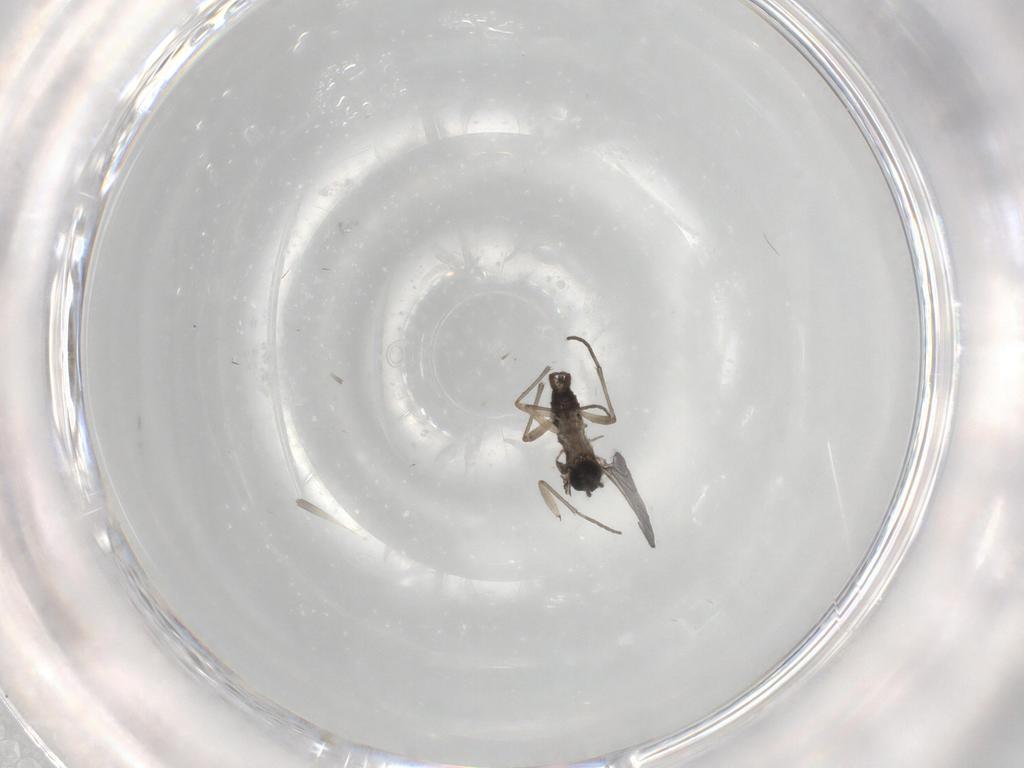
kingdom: Animalia
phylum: Arthropoda
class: Insecta
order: Diptera
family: Sciaridae
